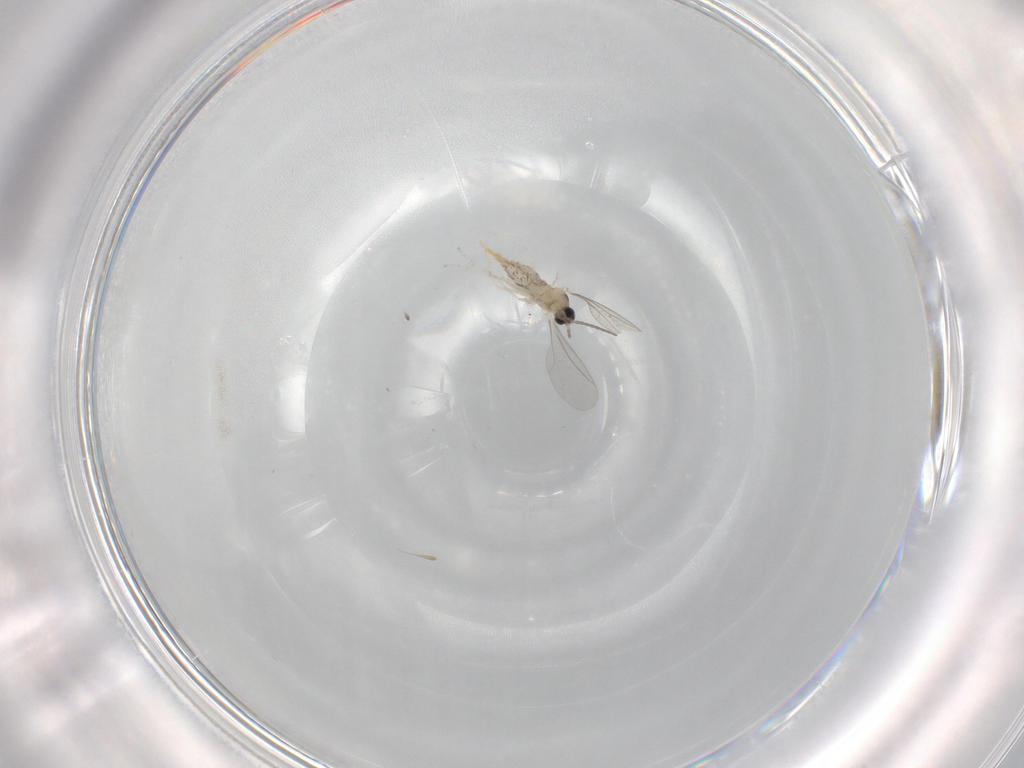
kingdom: Animalia
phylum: Arthropoda
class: Insecta
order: Diptera
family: Cecidomyiidae
